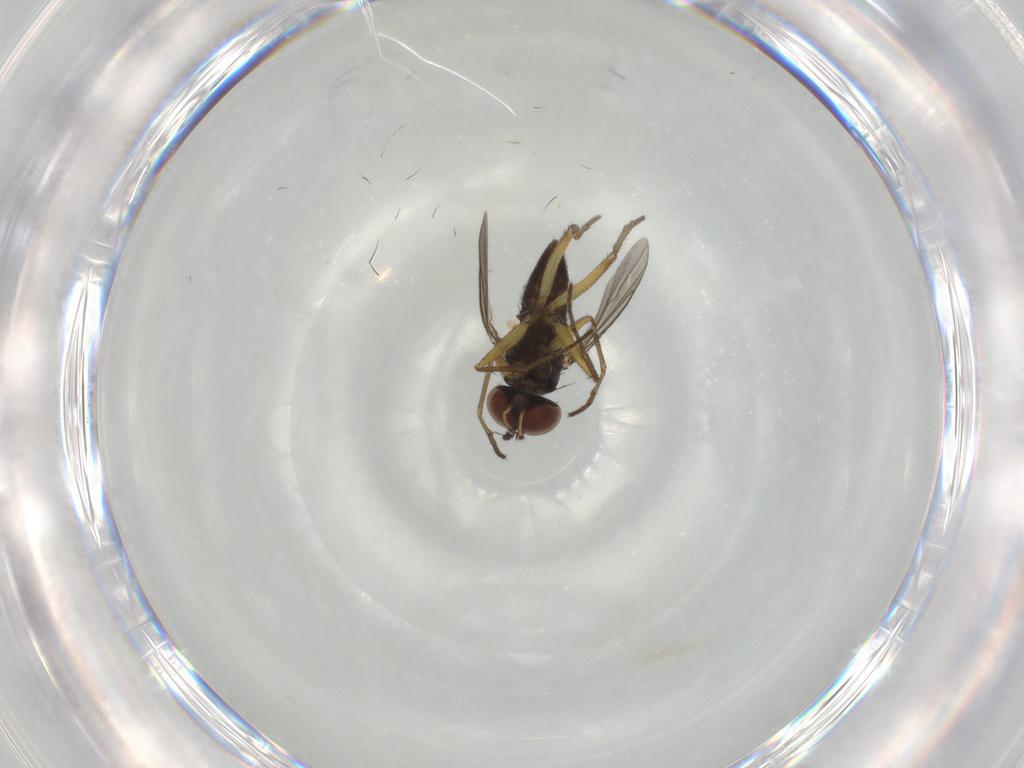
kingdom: Animalia
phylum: Arthropoda
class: Insecta
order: Diptera
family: Dolichopodidae
